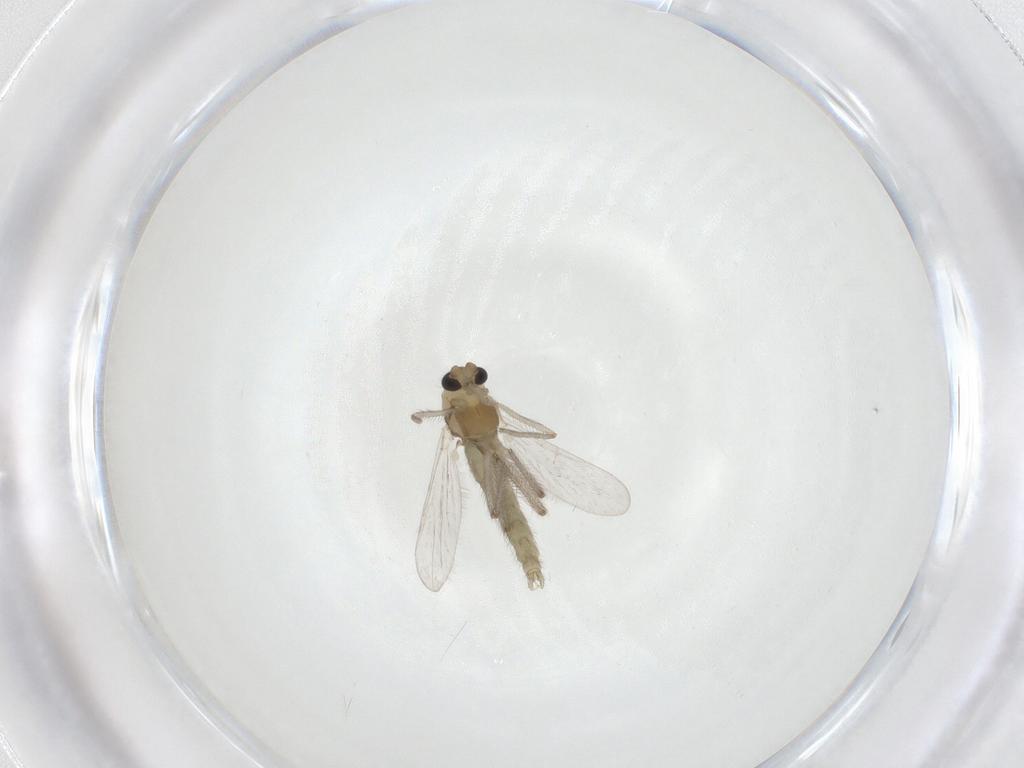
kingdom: Animalia
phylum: Arthropoda
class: Insecta
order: Diptera
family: Chironomidae
